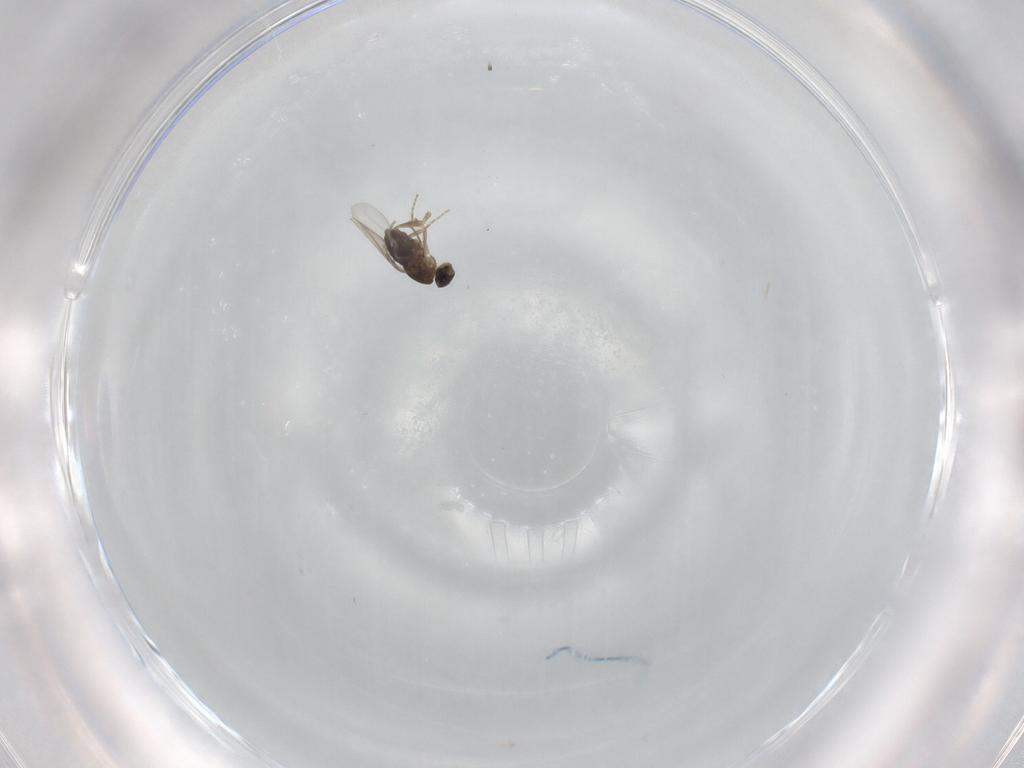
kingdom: Animalia
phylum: Arthropoda
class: Insecta
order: Diptera
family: Phoridae
